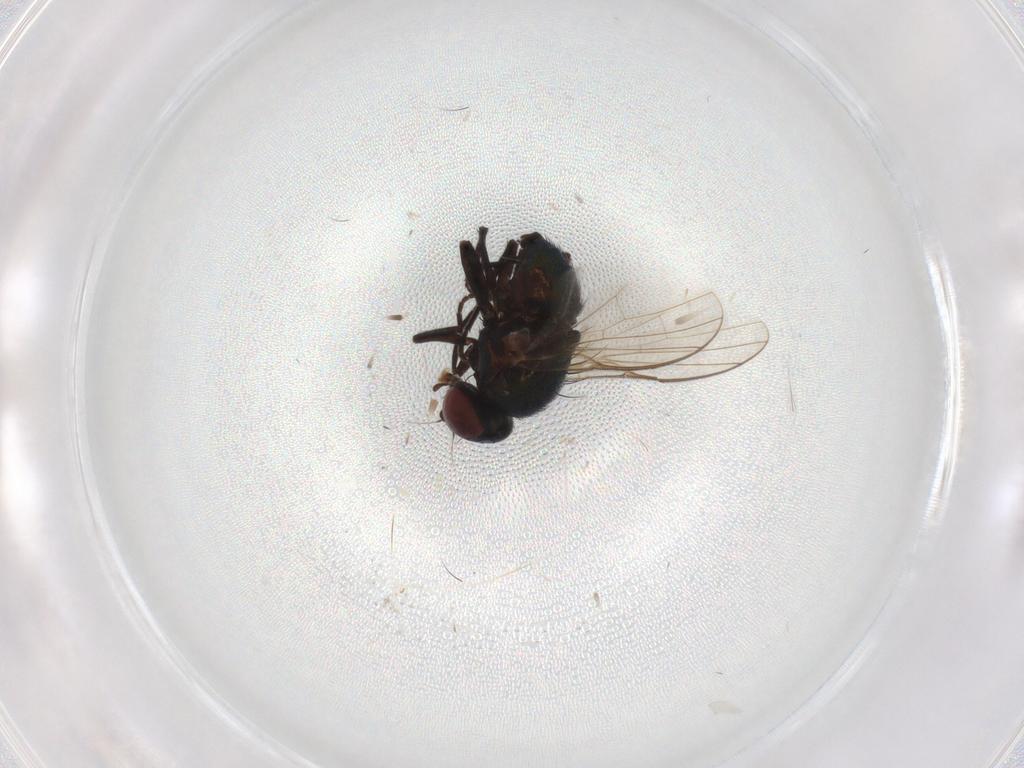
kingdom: Animalia
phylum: Arthropoda
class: Insecta
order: Diptera
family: Agromyzidae
